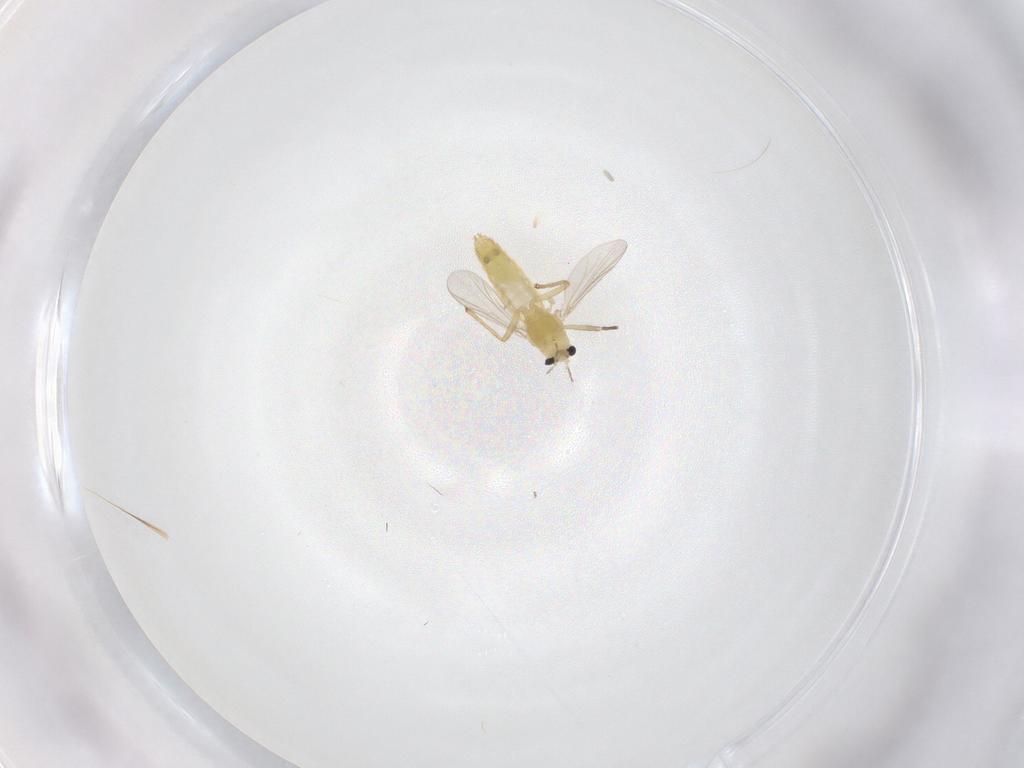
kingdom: Animalia
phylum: Arthropoda
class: Insecta
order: Diptera
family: Chironomidae
